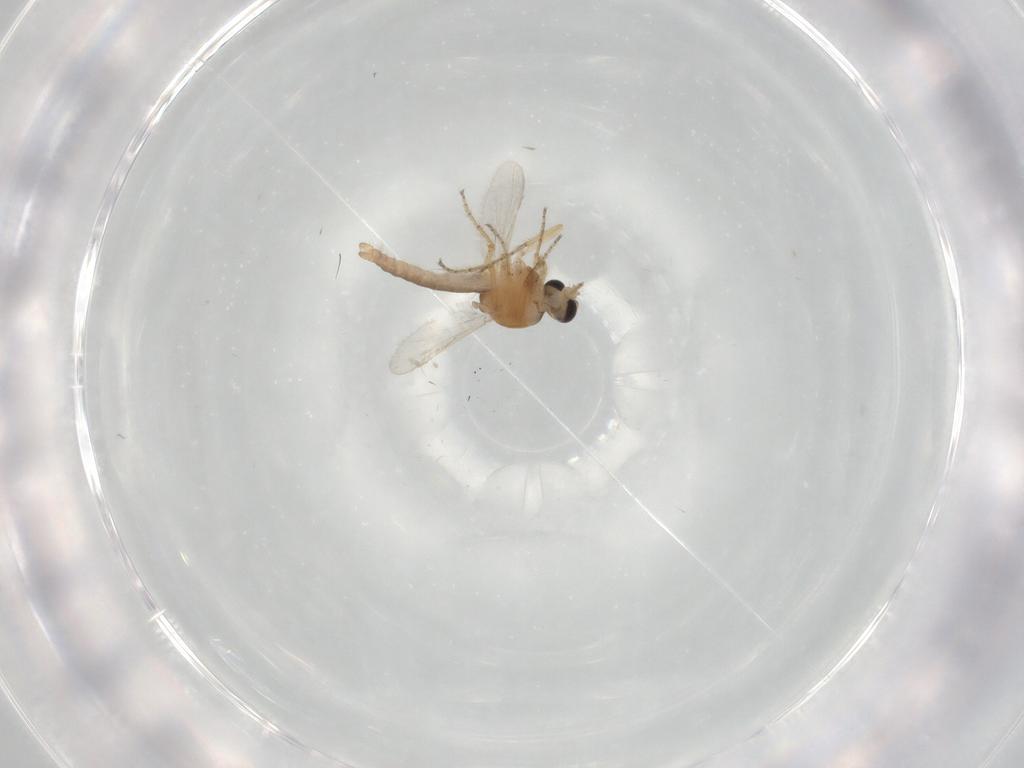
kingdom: Animalia
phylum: Arthropoda
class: Insecta
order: Diptera
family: Ceratopogonidae
